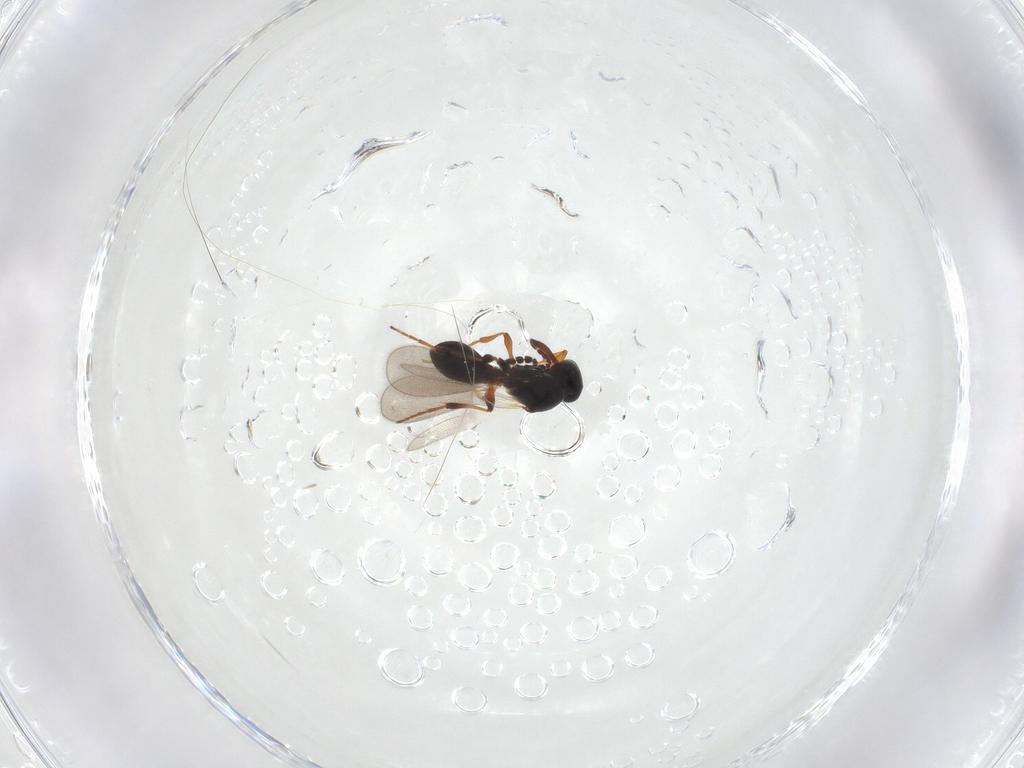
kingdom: Animalia
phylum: Arthropoda
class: Insecta
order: Hymenoptera
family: Platygastridae
